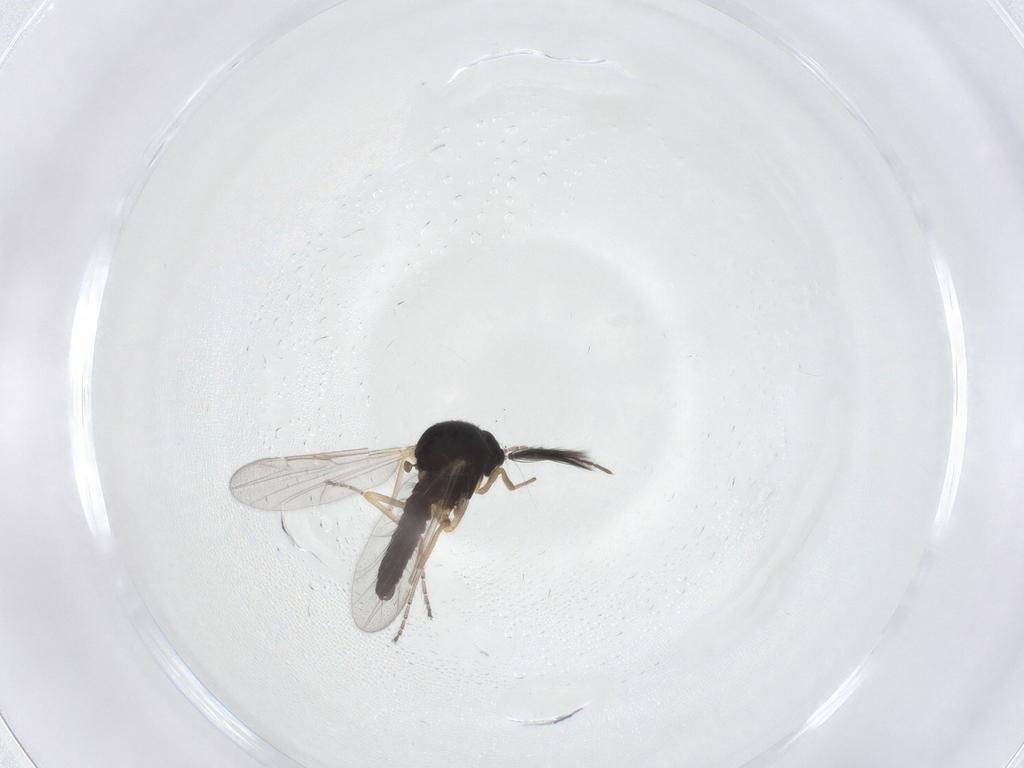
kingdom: Animalia
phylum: Arthropoda
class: Insecta
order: Diptera
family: Ceratopogonidae
